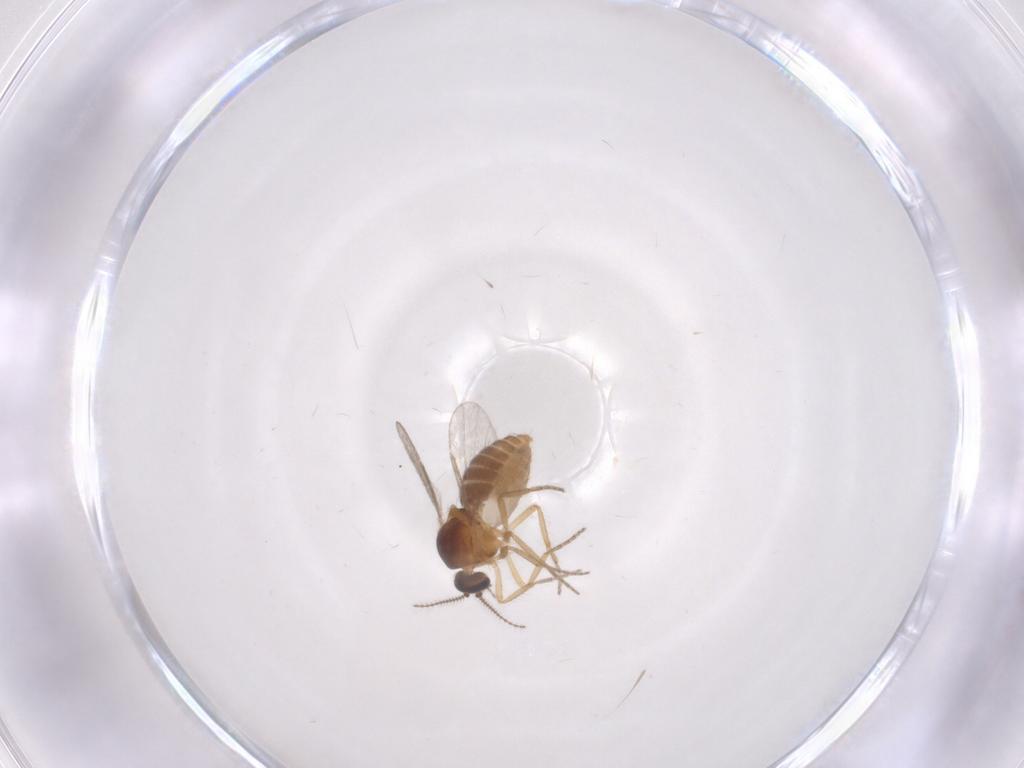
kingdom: Animalia
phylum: Arthropoda
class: Insecta
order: Diptera
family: Ceratopogonidae
